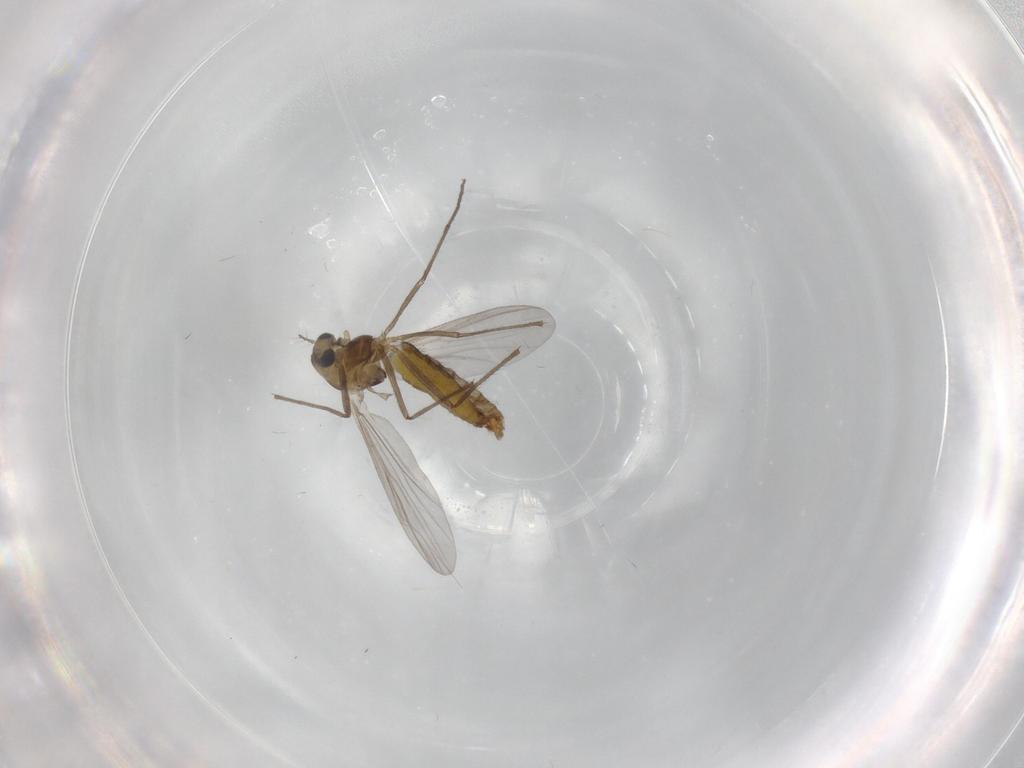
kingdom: Animalia
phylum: Arthropoda
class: Insecta
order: Diptera
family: Chironomidae
